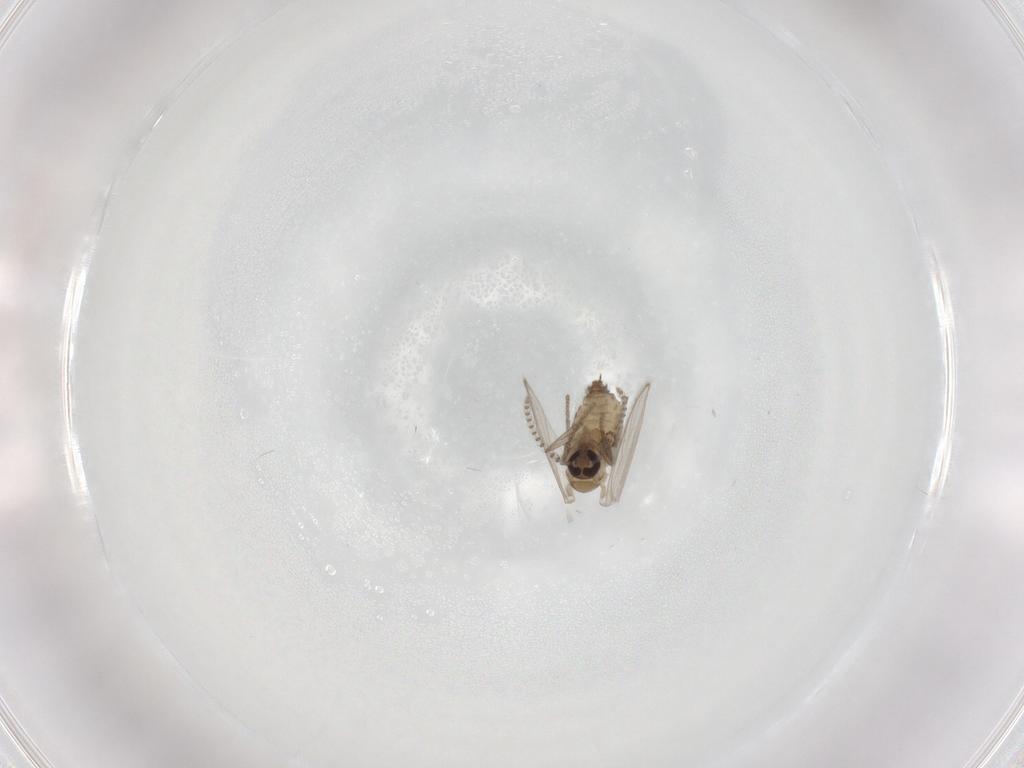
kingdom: Animalia
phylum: Arthropoda
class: Insecta
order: Diptera
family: Psychodidae
